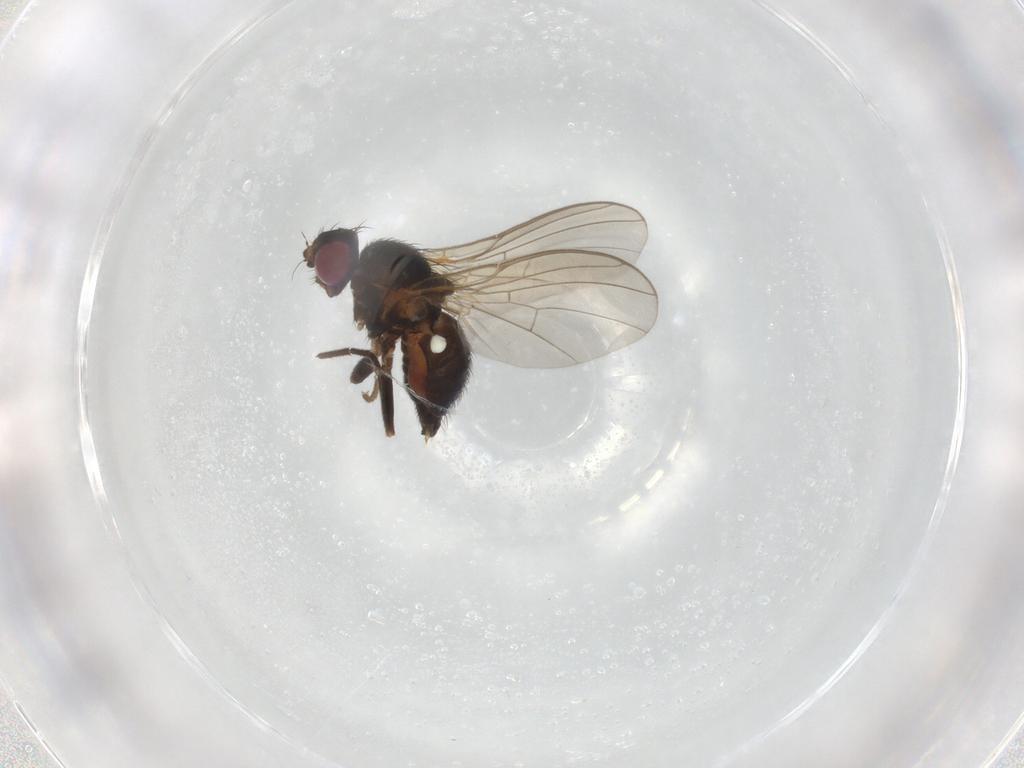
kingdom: Animalia
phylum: Arthropoda
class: Insecta
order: Diptera
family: Agromyzidae
